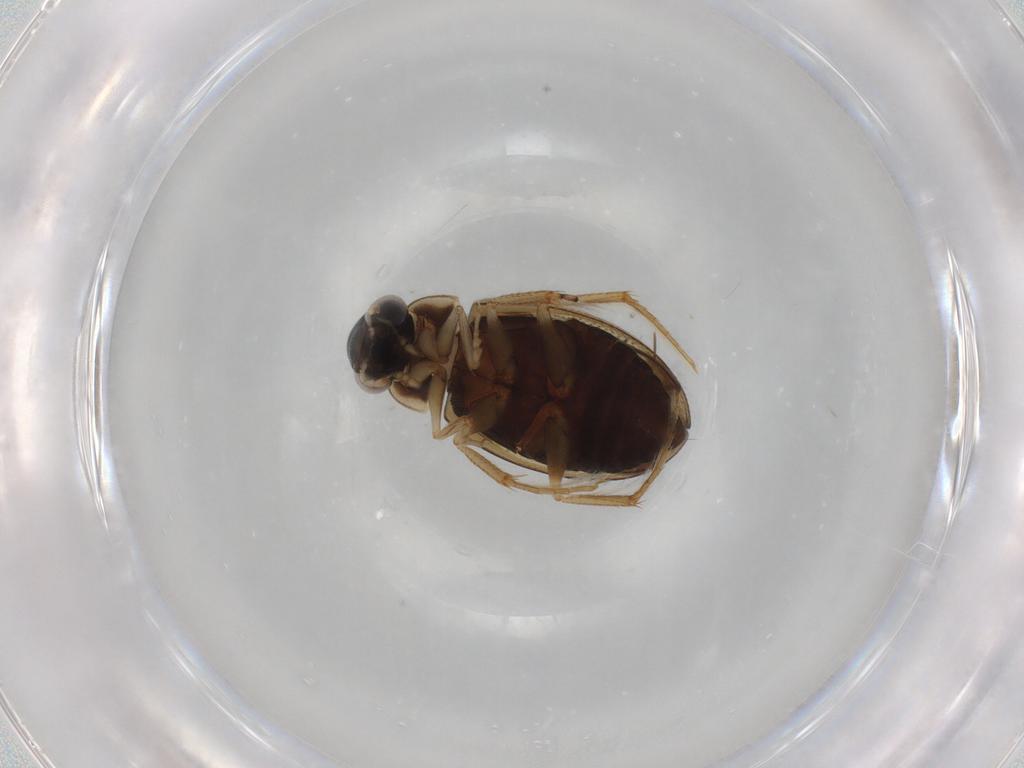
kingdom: Animalia
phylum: Arthropoda
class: Insecta
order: Coleoptera
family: Hydrophilidae
